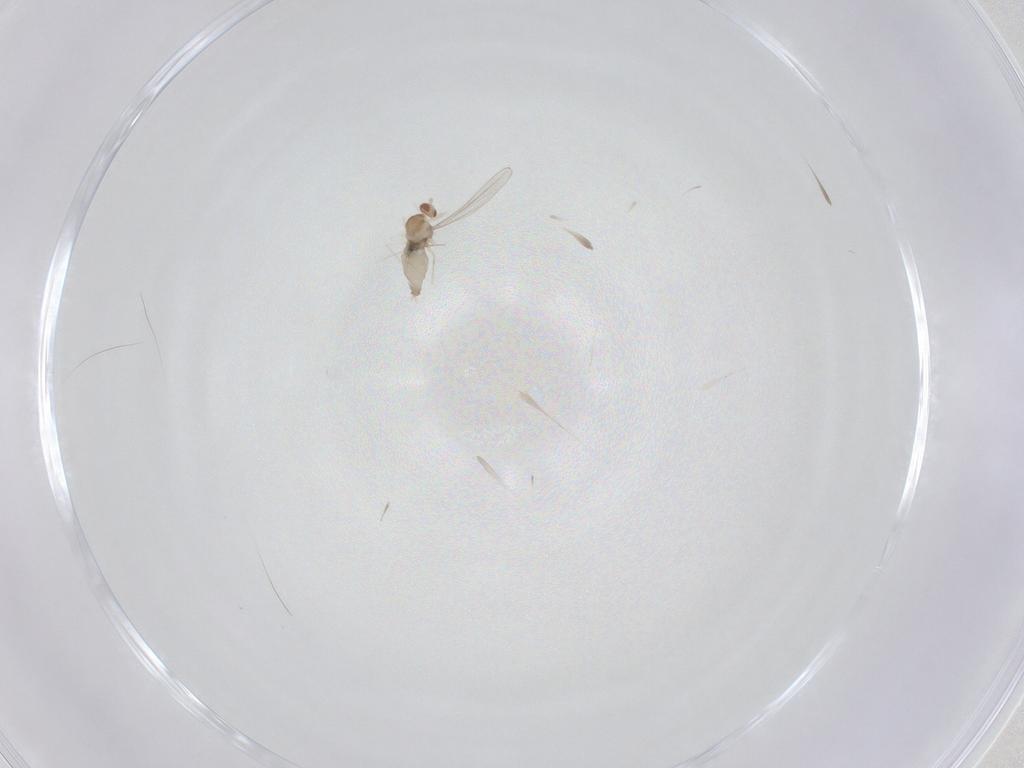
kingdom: Animalia
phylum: Arthropoda
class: Insecta
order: Diptera
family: Cecidomyiidae
